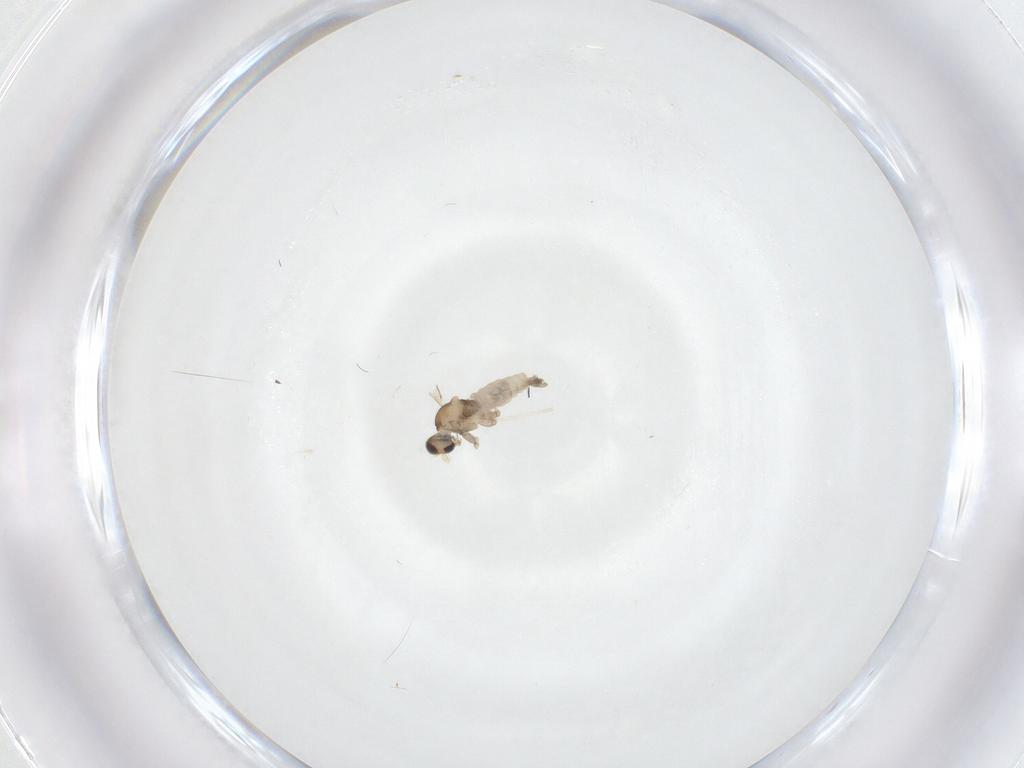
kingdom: Animalia
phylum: Arthropoda
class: Insecta
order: Diptera
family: Cecidomyiidae
